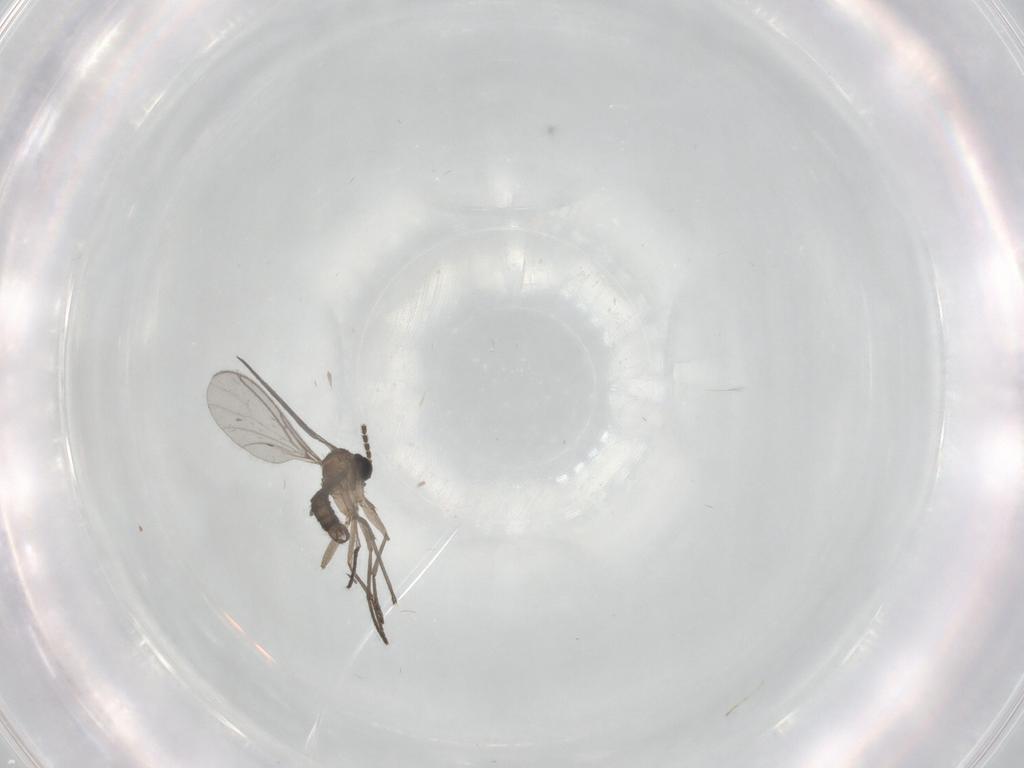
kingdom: Animalia
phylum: Arthropoda
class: Insecta
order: Diptera
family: Sciaridae
